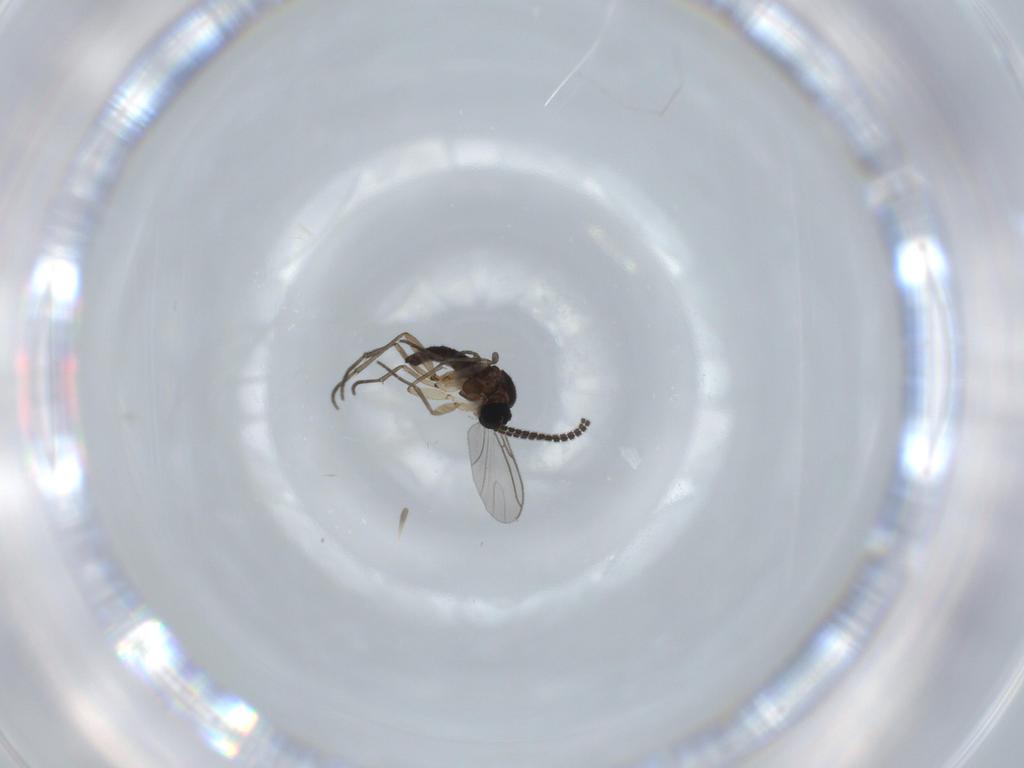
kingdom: Animalia
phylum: Arthropoda
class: Insecta
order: Diptera
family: Sciaridae
